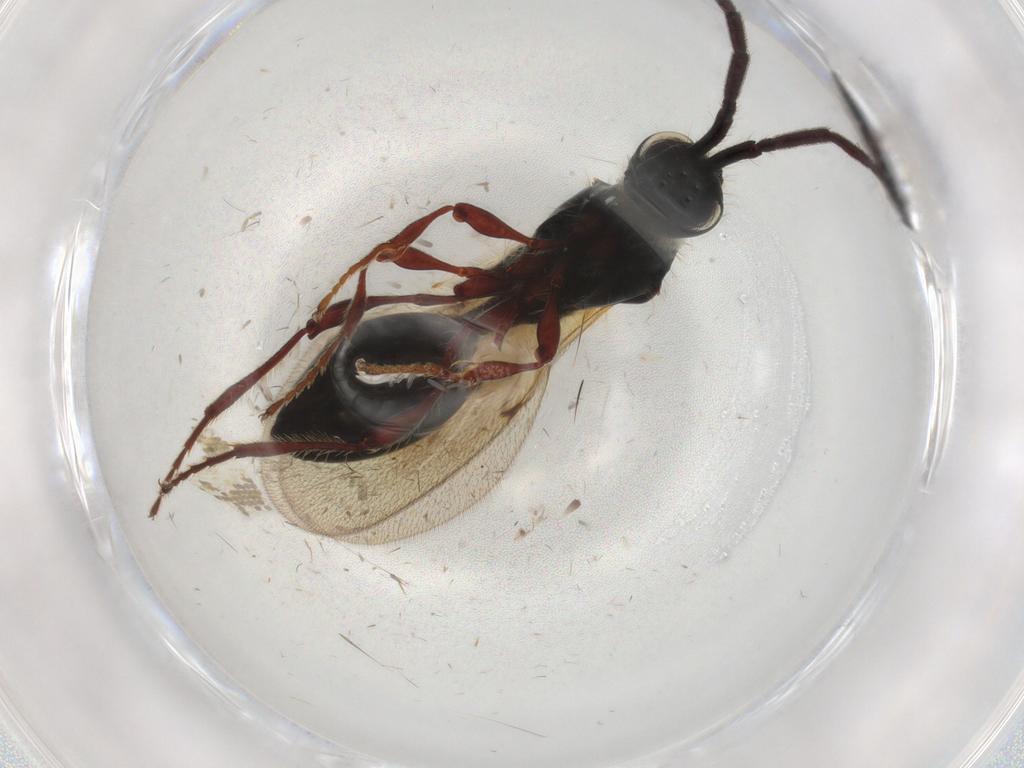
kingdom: Animalia
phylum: Arthropoda
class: Insecta
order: Hymenoptera
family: Diapriidae
